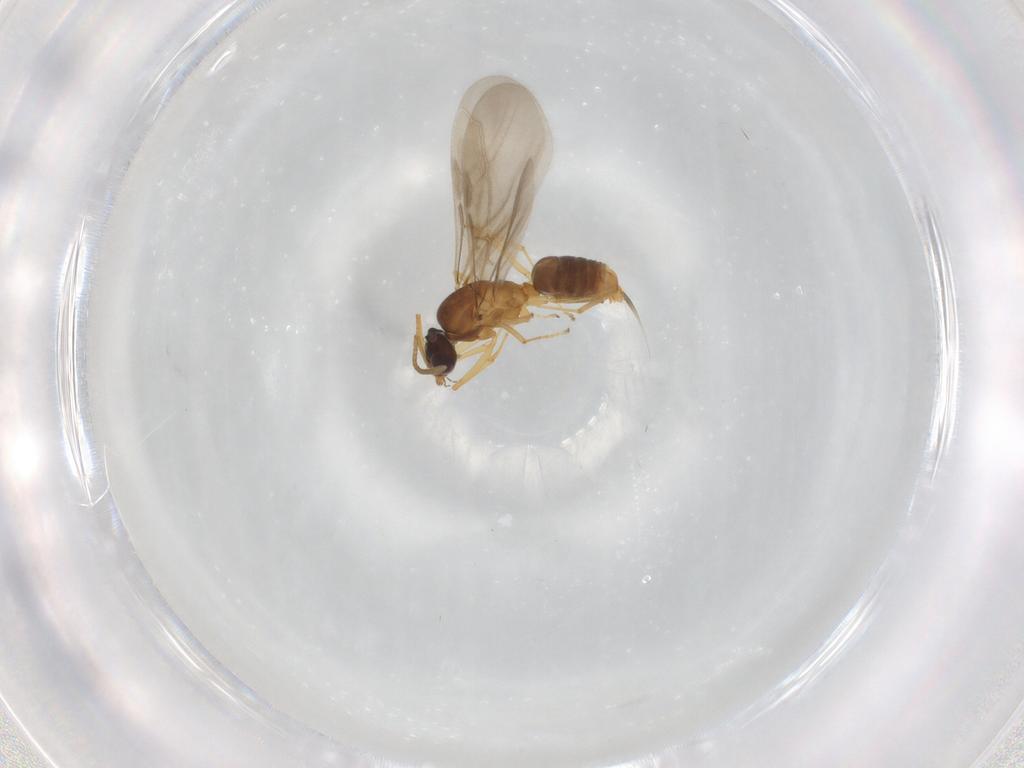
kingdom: Animalia
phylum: Arthropoda
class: Insecta
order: Hymenoptera
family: Formicidae
